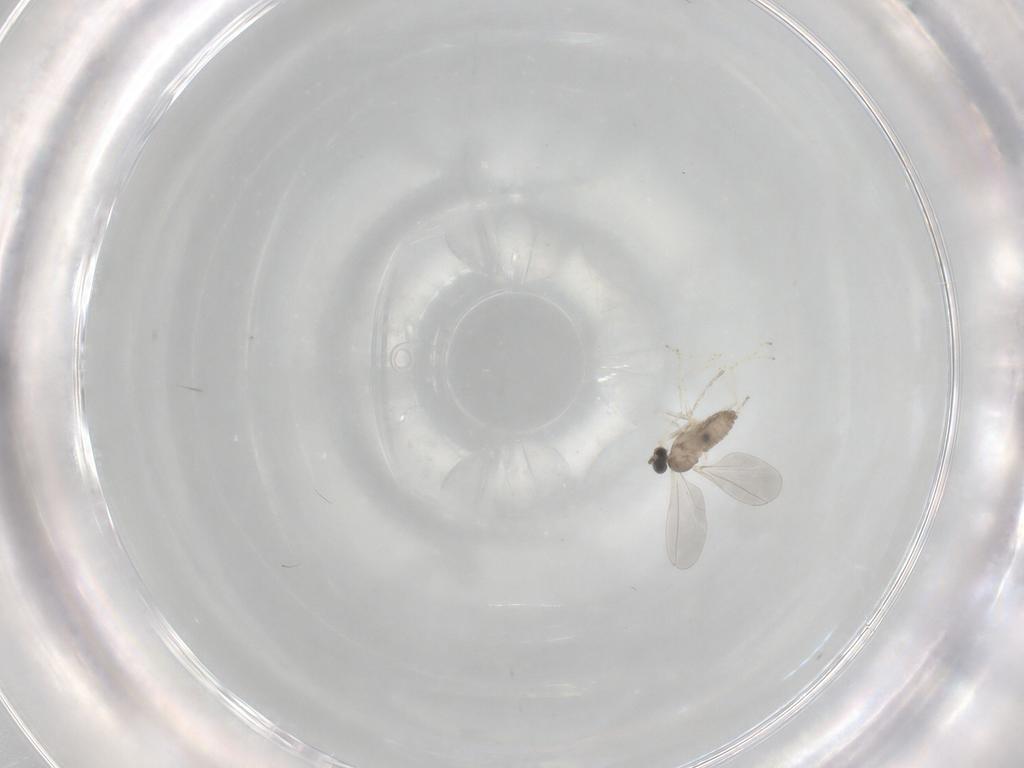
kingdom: Animalia
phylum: Arthropoda
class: Insecta
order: Diptera
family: Cecidomyiidae
